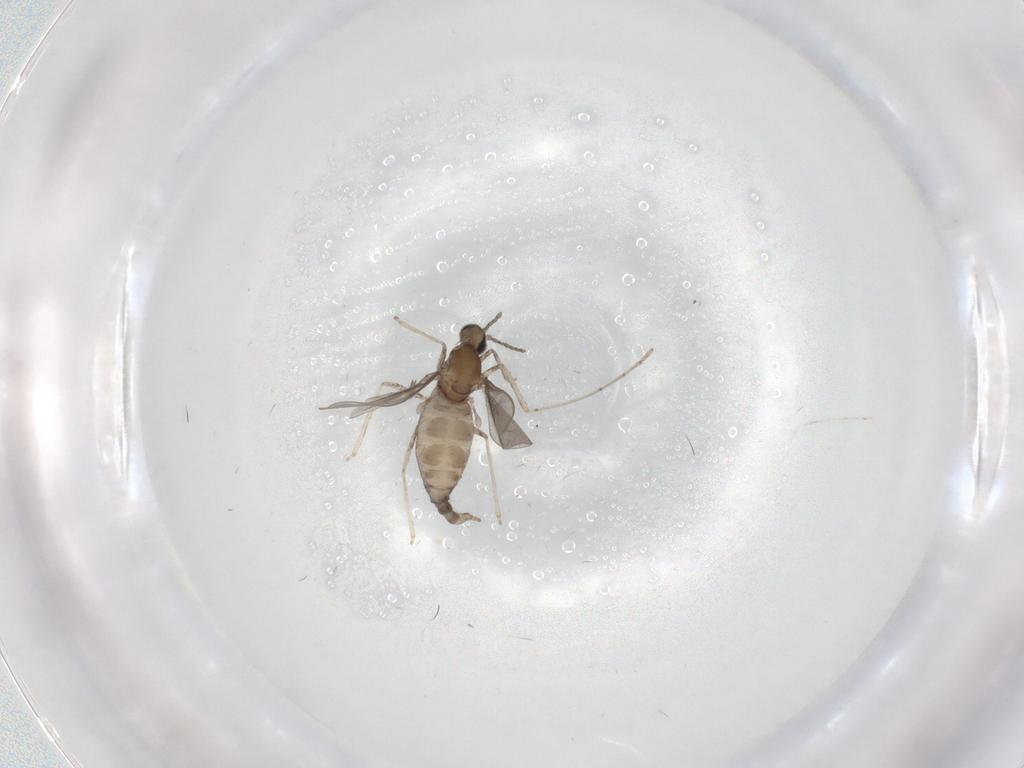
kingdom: Animalia
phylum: Arthropoda
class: Insecta
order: Diptera
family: Cecidomyiidae
